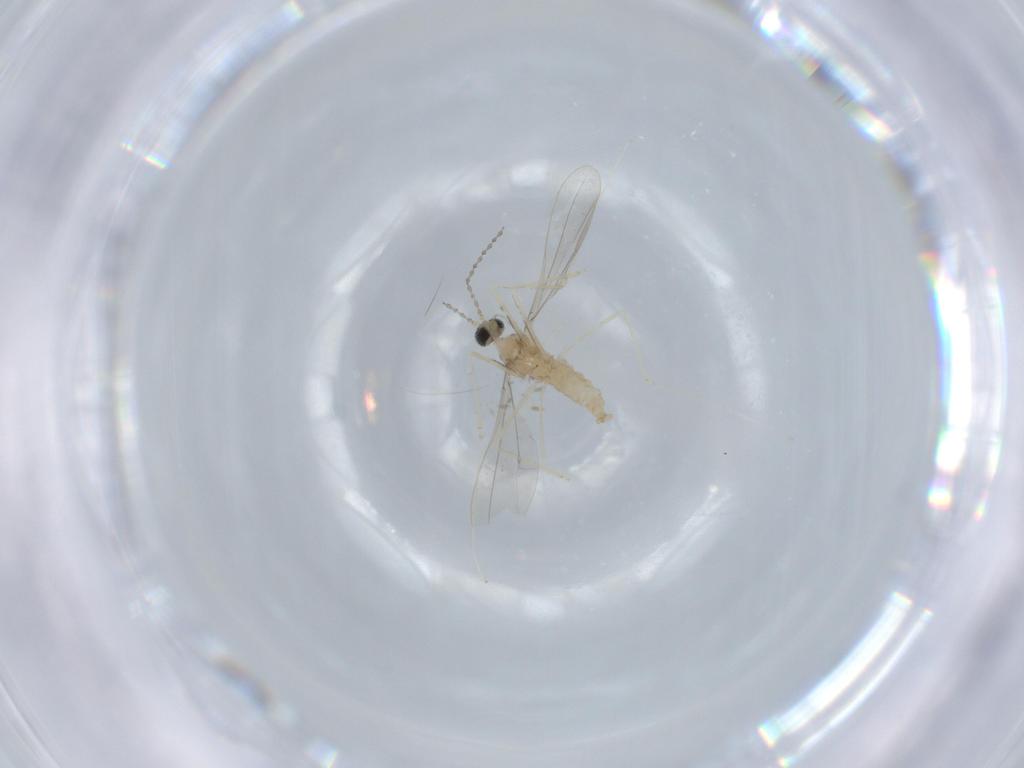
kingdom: Animalia
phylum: Arthropoda
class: Insecta
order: Diptera
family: Cecidomyiidae
